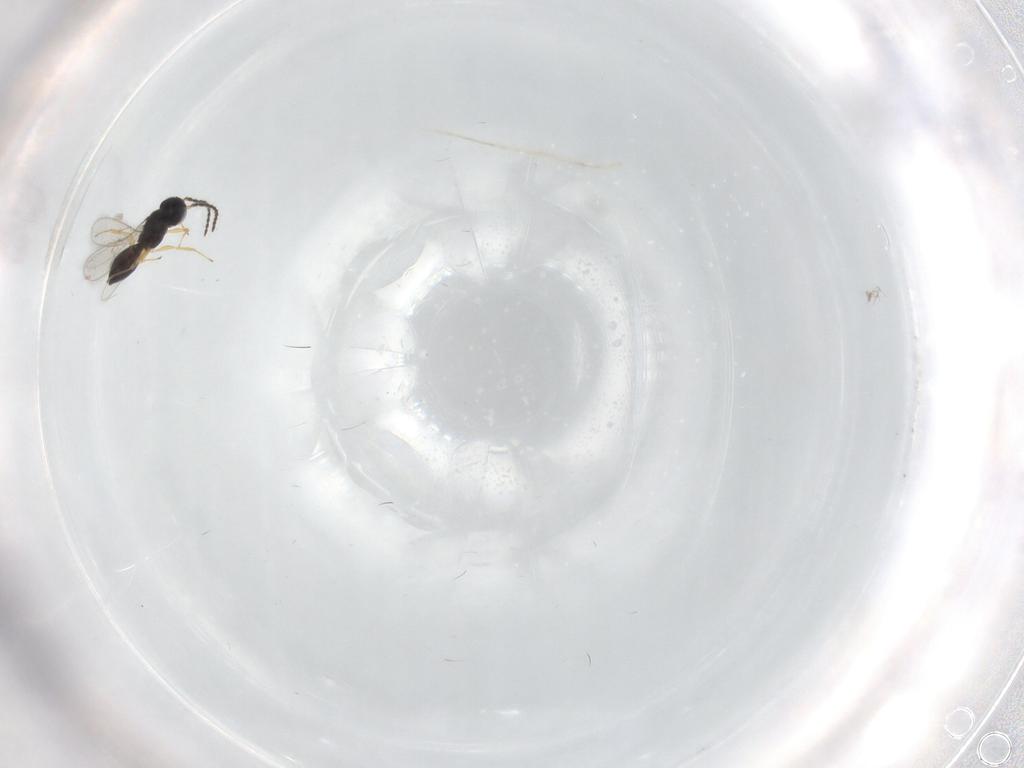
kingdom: Animalia
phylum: Arthropoda
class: Insecta
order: Hymenoptera
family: Scelionidae
